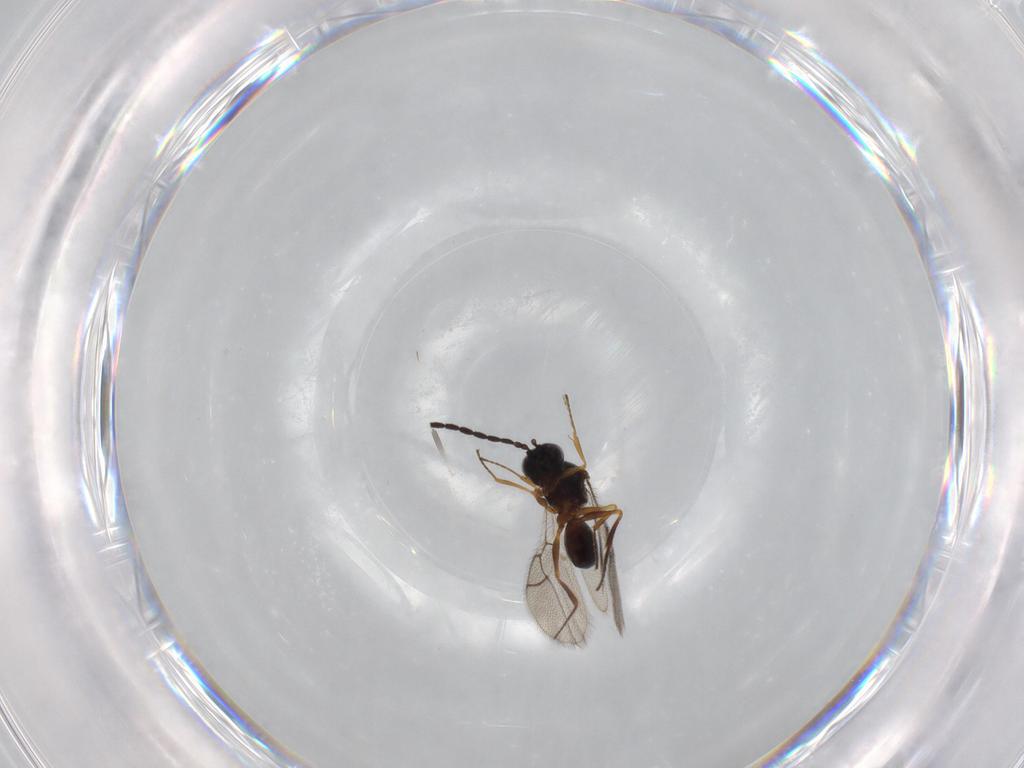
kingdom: Animalia
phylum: Arthropoda
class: Insecta
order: Hymenoptera
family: Figitidae
